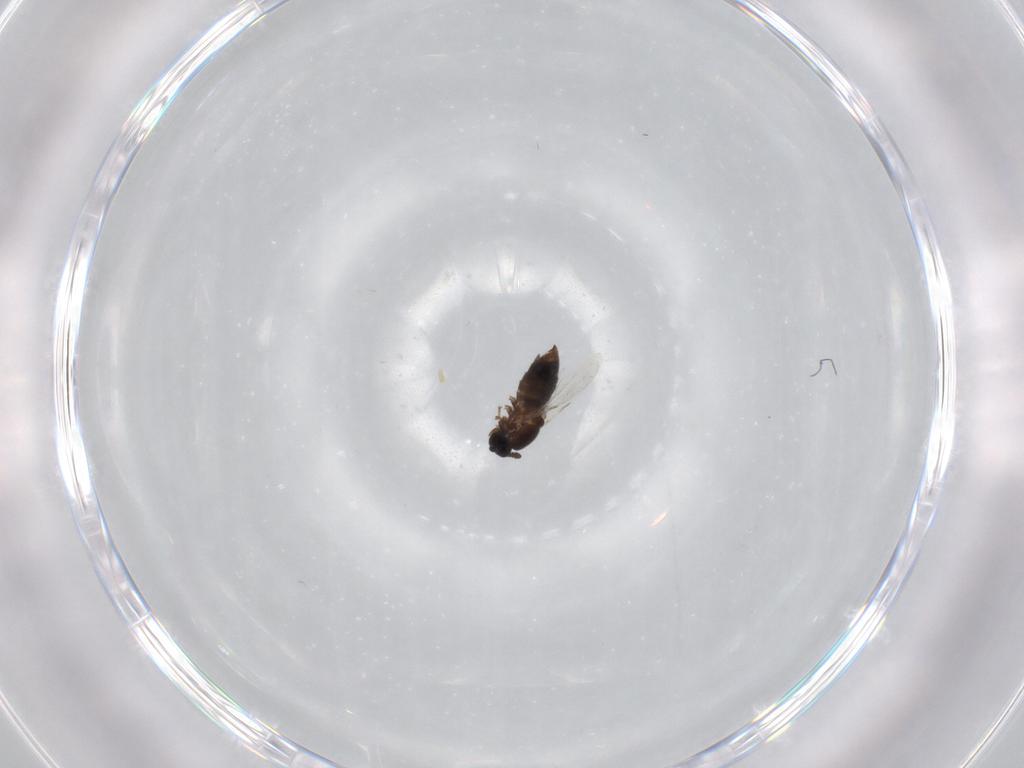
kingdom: Animalia
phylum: Arthropoda
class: Insecta
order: Diptera
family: Scatopsidae
